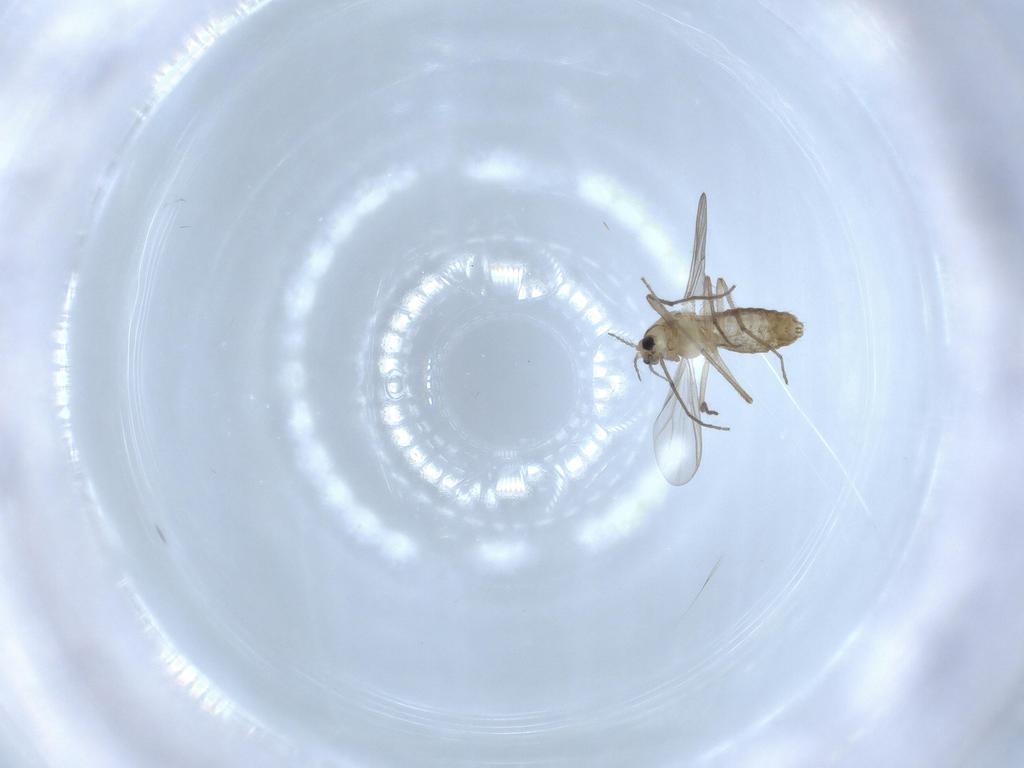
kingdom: Animalia
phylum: Arthropoda
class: Insecta
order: Diptera
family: Chironomidae
